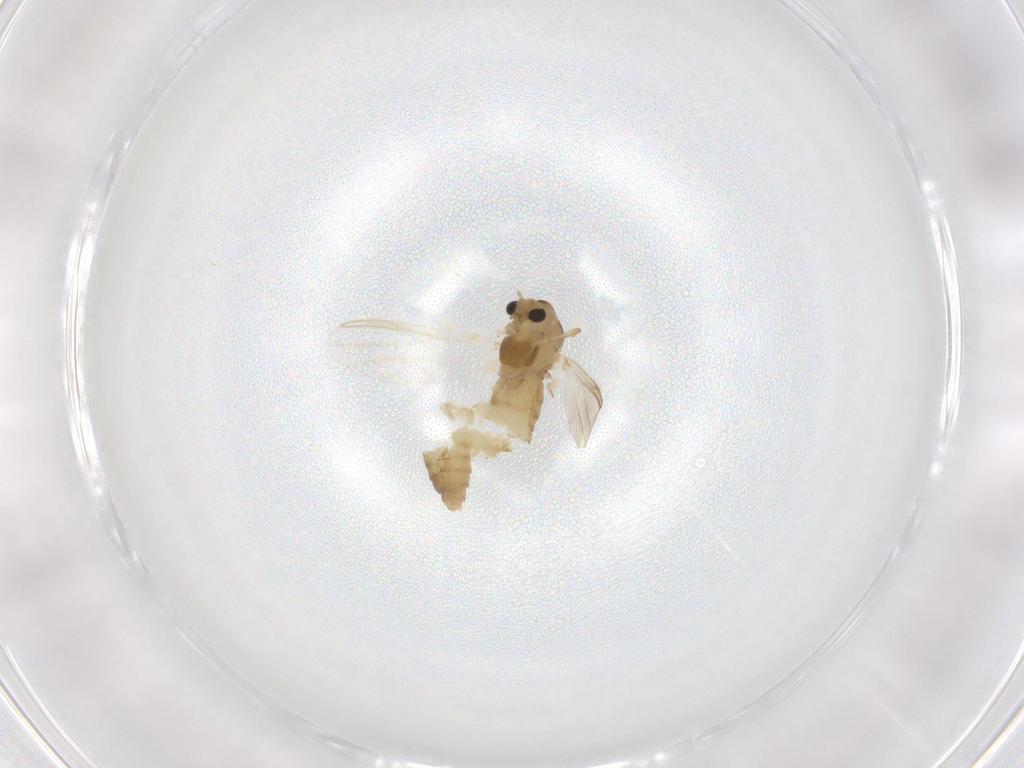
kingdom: Animalia
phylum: Arthropoda
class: Insecta
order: Diptera
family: Chironomidae
